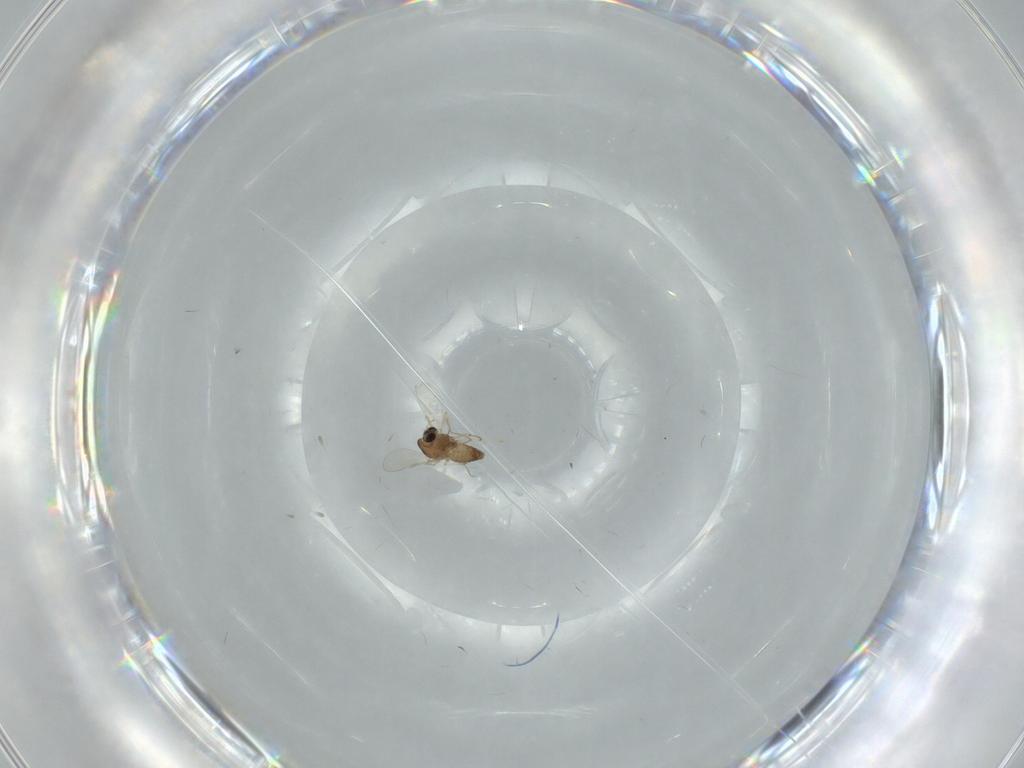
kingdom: Animalia
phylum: Arthropoda
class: Insecta
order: Diptera
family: Chironomidae
